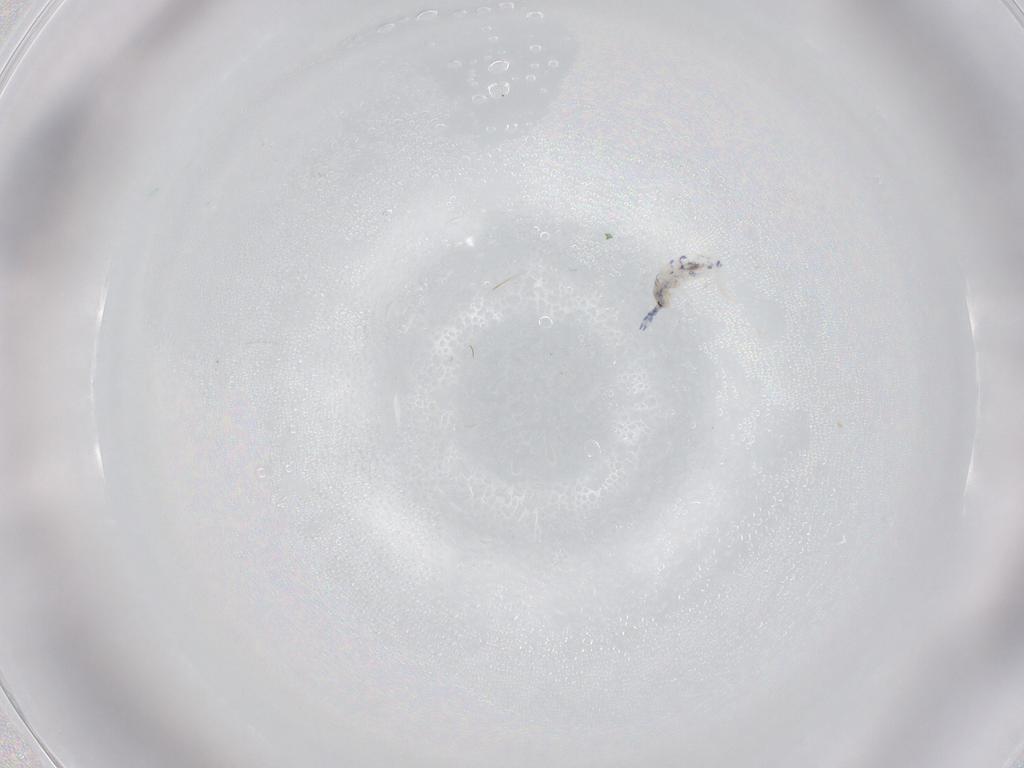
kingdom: Animalia
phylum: Arthropoda
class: Collembola
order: Entomobryomorpha
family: Entomobryidae
